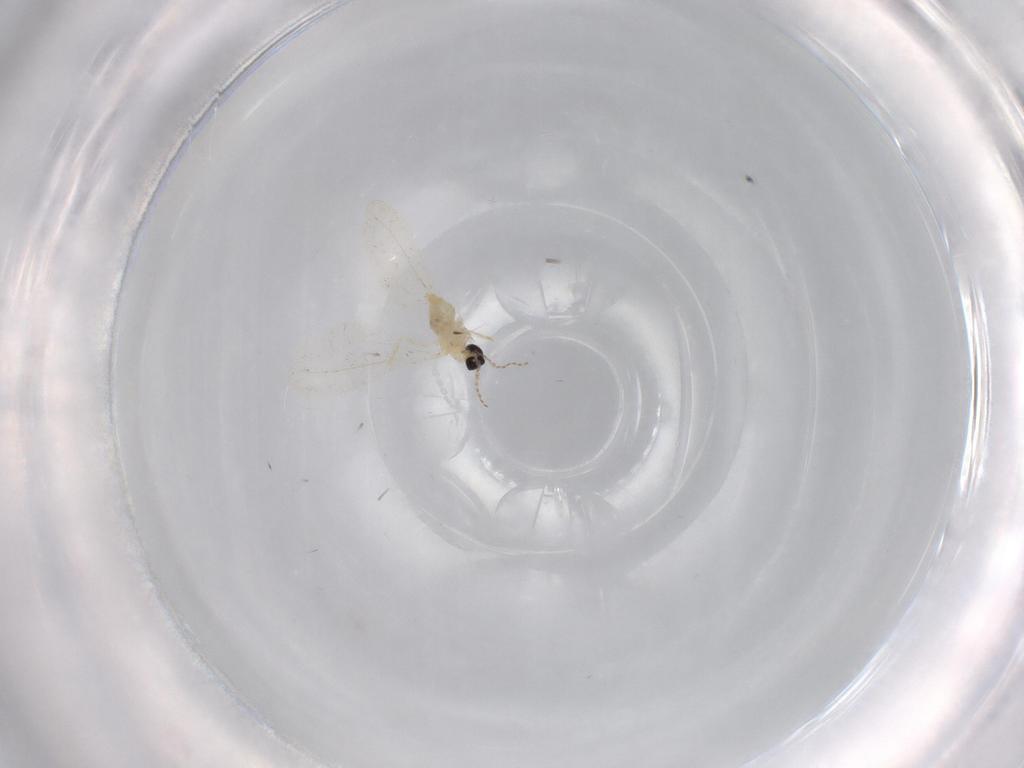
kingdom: Animalia
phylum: Arthropoda
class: Insecta
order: Diptera
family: Cecidomyiidae
